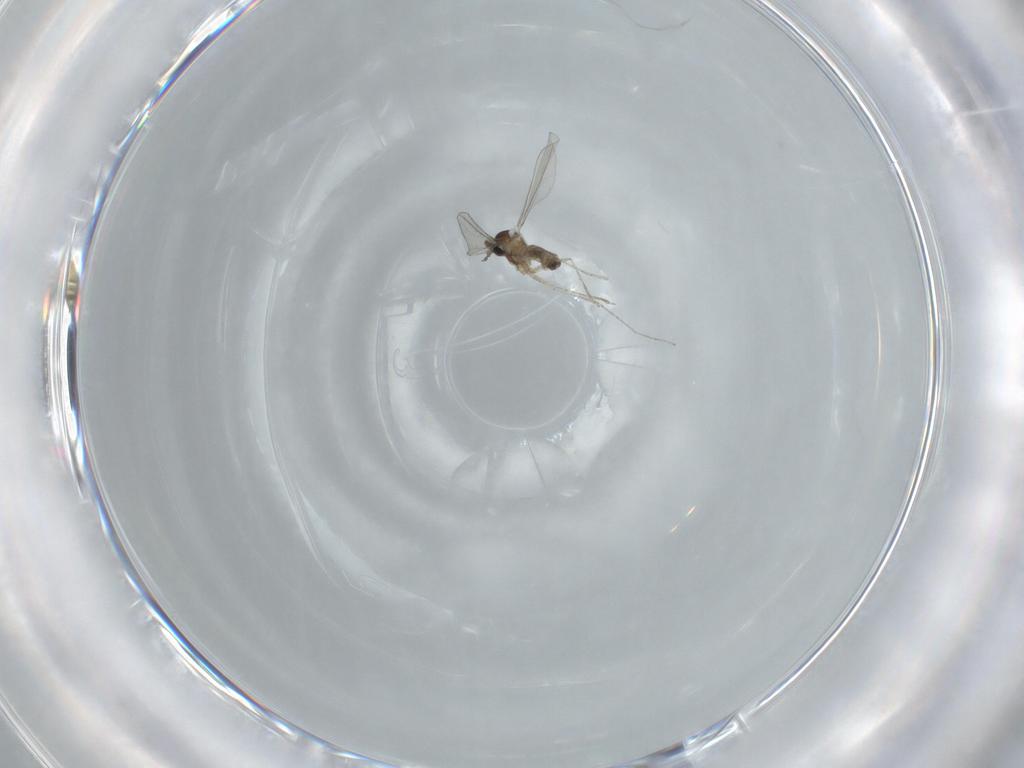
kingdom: Animalia
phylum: Arthropoda
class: Insecta
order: Diptera
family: Cecidomyiidae
